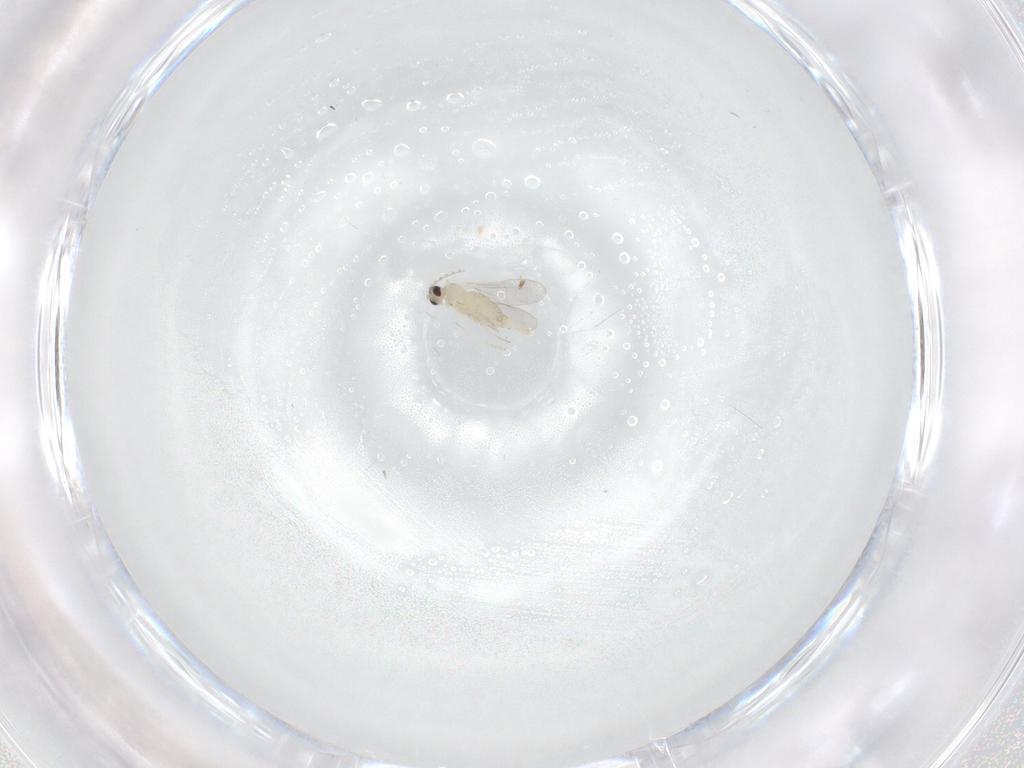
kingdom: Animalia
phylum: Arthropoda
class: Insecta
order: Diptera
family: Cecidomyiidae
